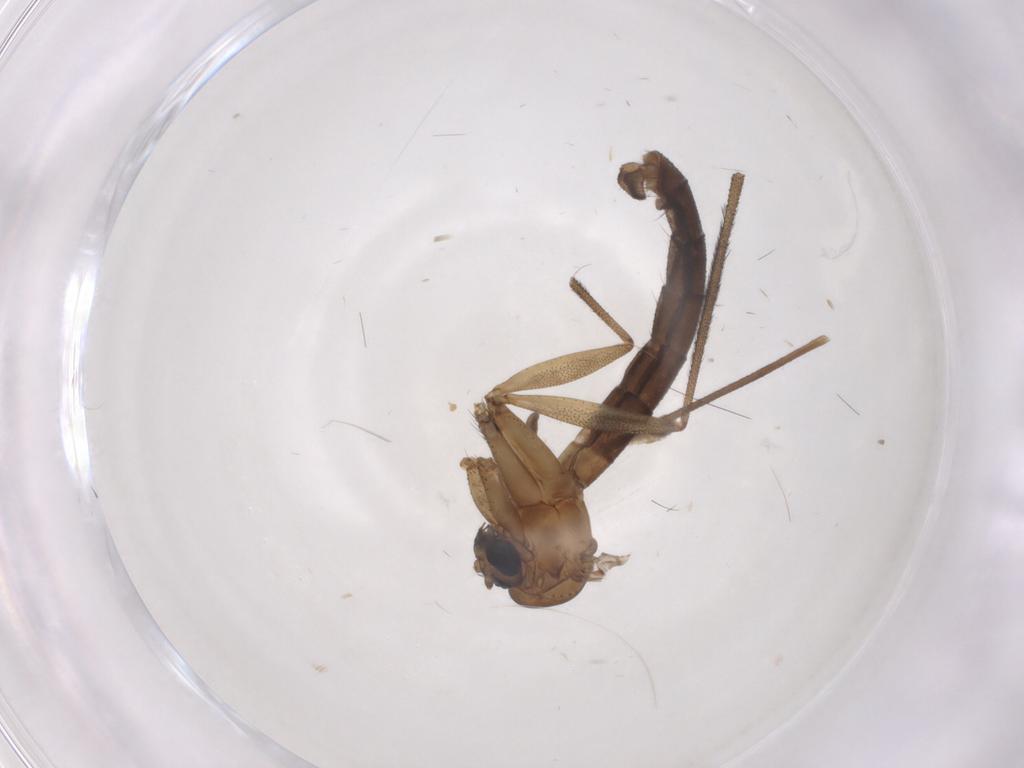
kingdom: Animalia
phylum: Arthropoda
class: Insecta
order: Diptera
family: Ditomyiidae
